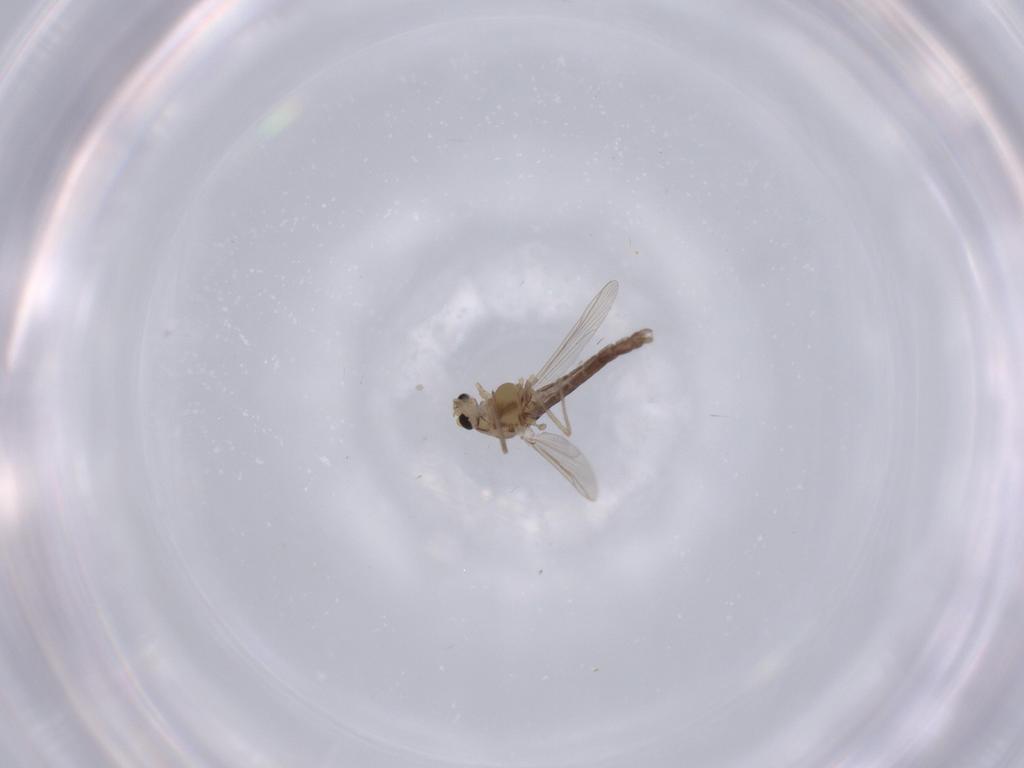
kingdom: Animalia
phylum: Arthropoda
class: Insecta
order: Diptera
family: Chironomidae
